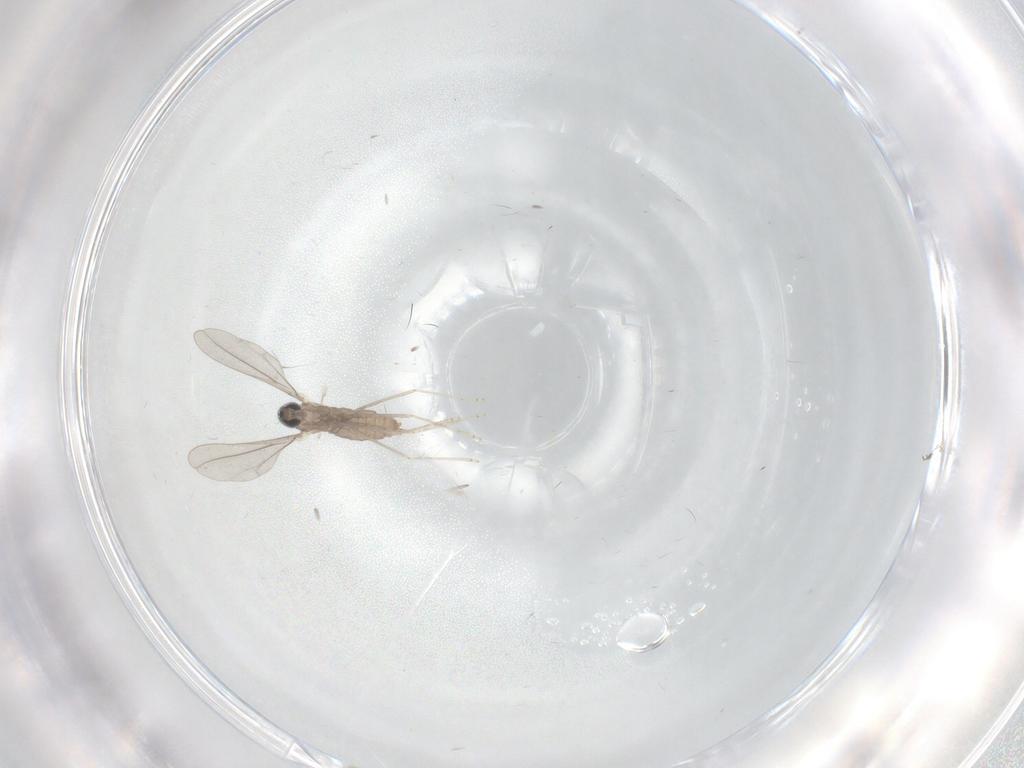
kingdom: Animalia
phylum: Arthropoda
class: Insecta
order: Diptera
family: Cecidomyiidae
